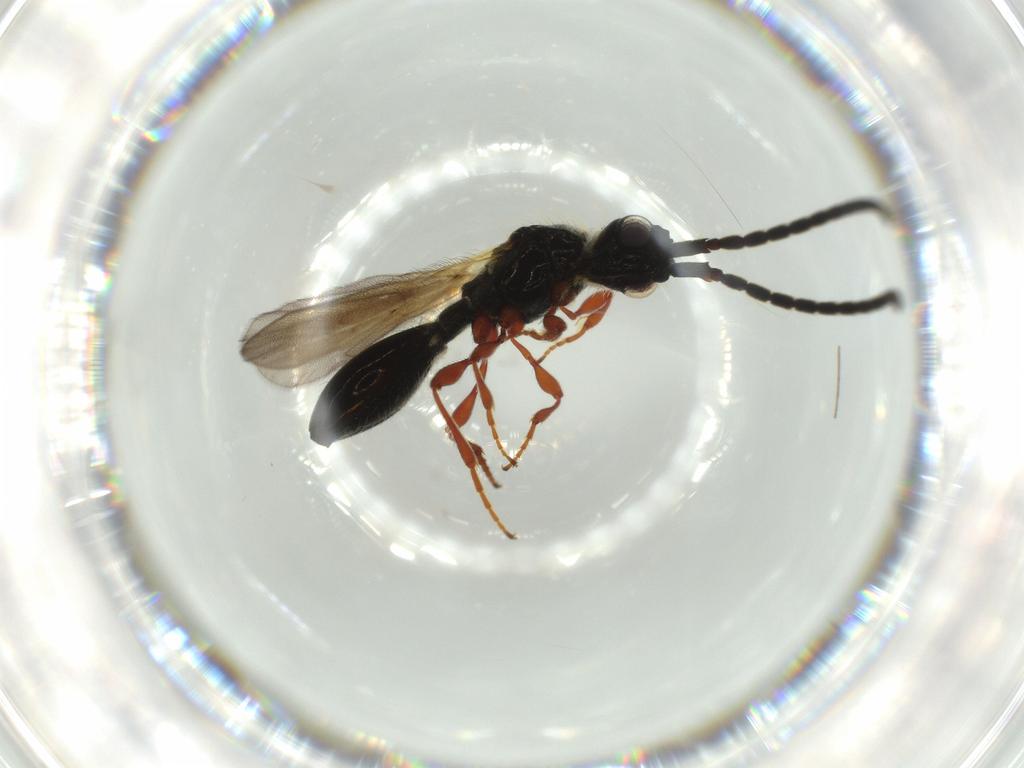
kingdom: Animalia
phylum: Arthropoda
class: Insecta
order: Hymenoptera
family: Diapriidae
